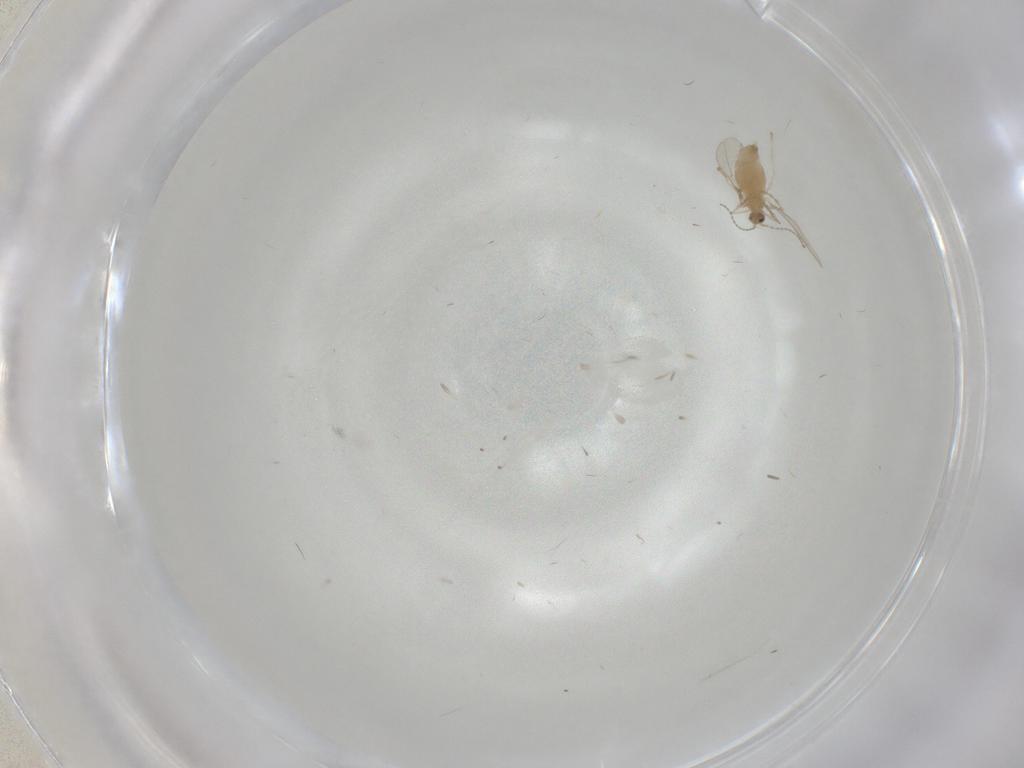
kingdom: Animalia
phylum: Arthropoda
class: Insecta
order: Diptera
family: Cecidomyiidae
